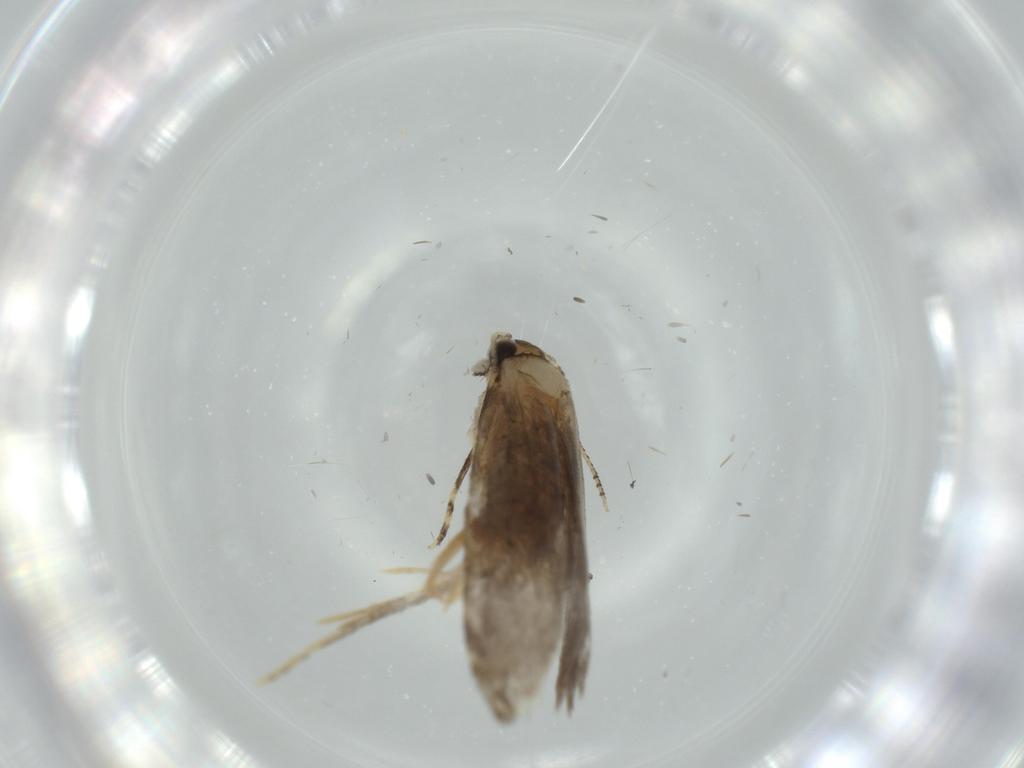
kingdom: Animalia
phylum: Arthropoda
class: Insecta
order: Lepidoptera
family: Tineidae
